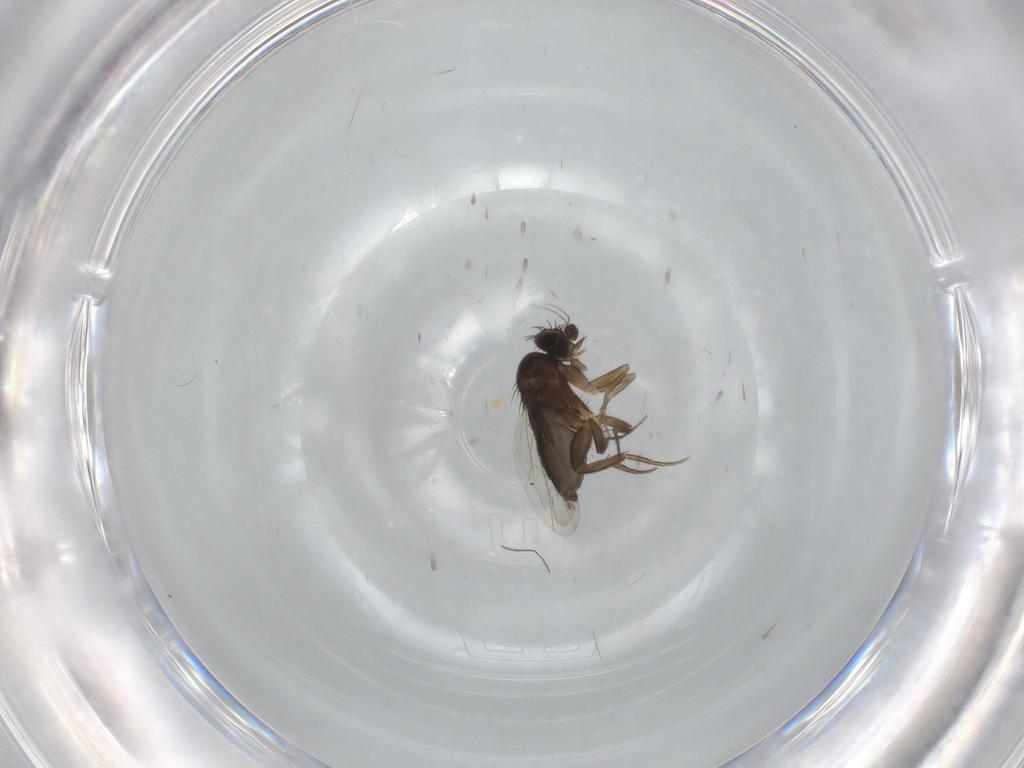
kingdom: Animalia
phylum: Arthropoda
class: Insecta
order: Diptera
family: Phoridae
